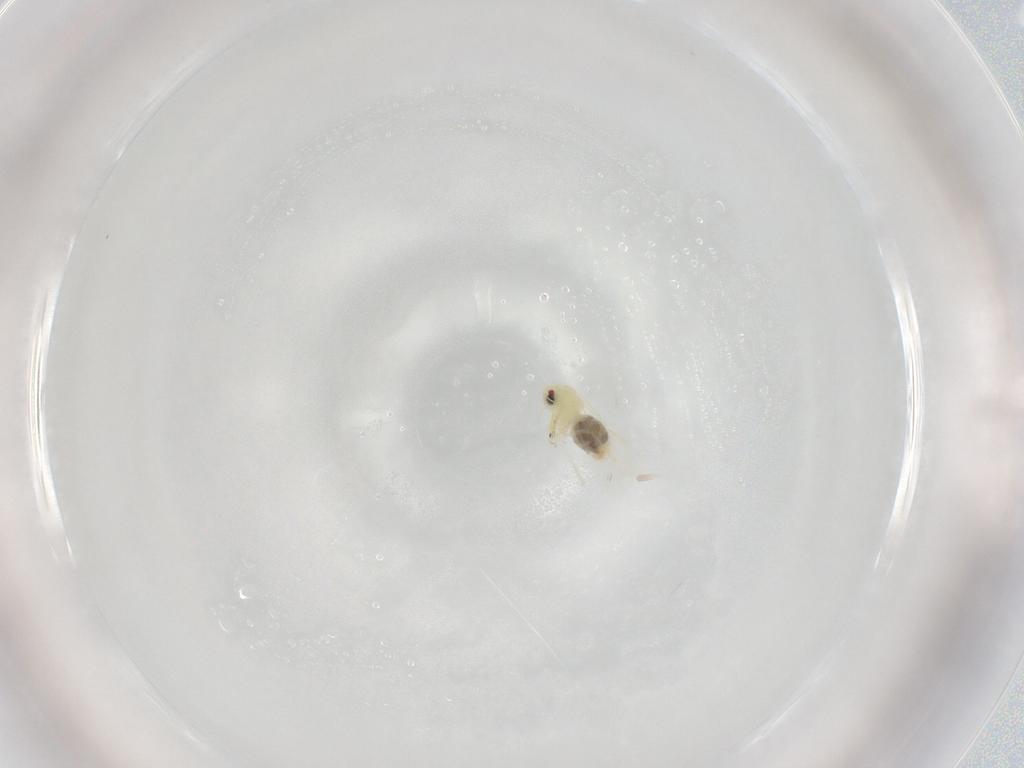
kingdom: Animalia
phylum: Arthropoda
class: Insecta
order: Hemiptera
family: Aleyrodidae
